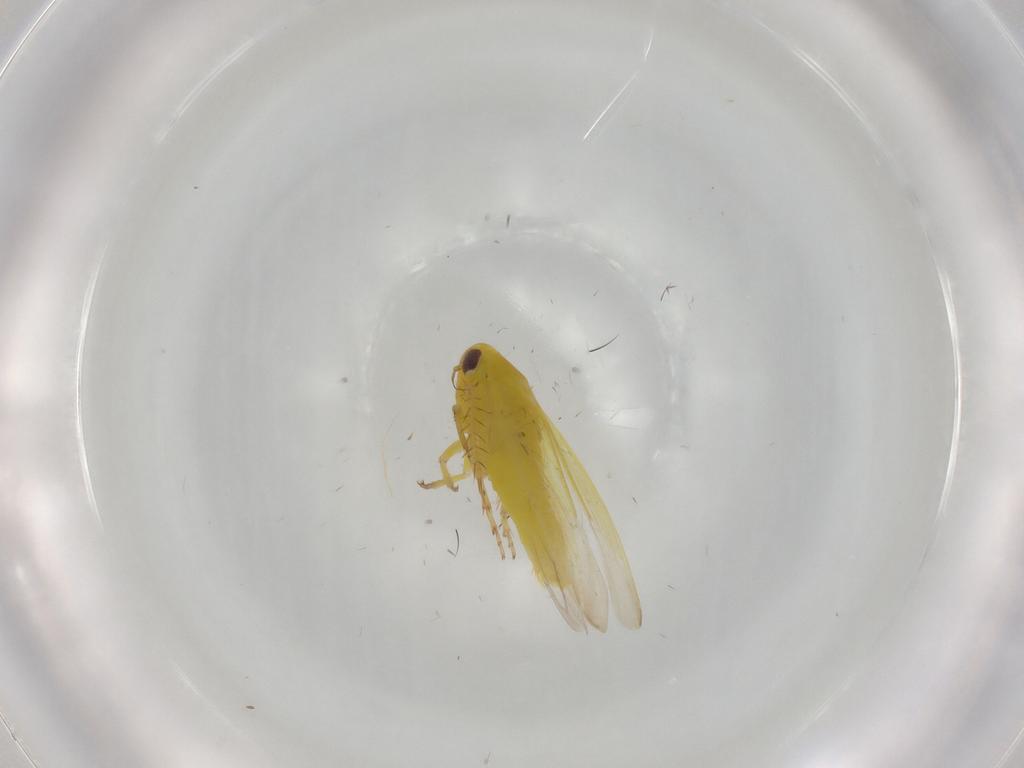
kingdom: Animalia
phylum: Arthropoda
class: Insecta
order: Hemiptera
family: Cicadellidae
